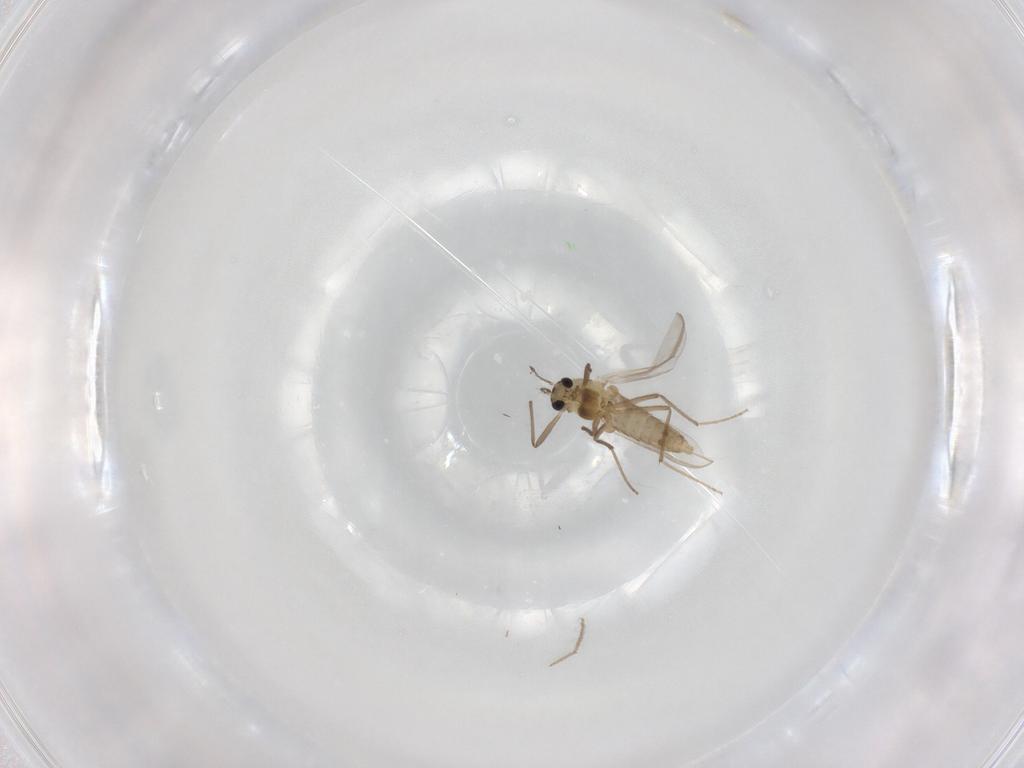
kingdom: Animalia
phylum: Arthropoda
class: Insecta
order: Diptera
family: Chironomidae
